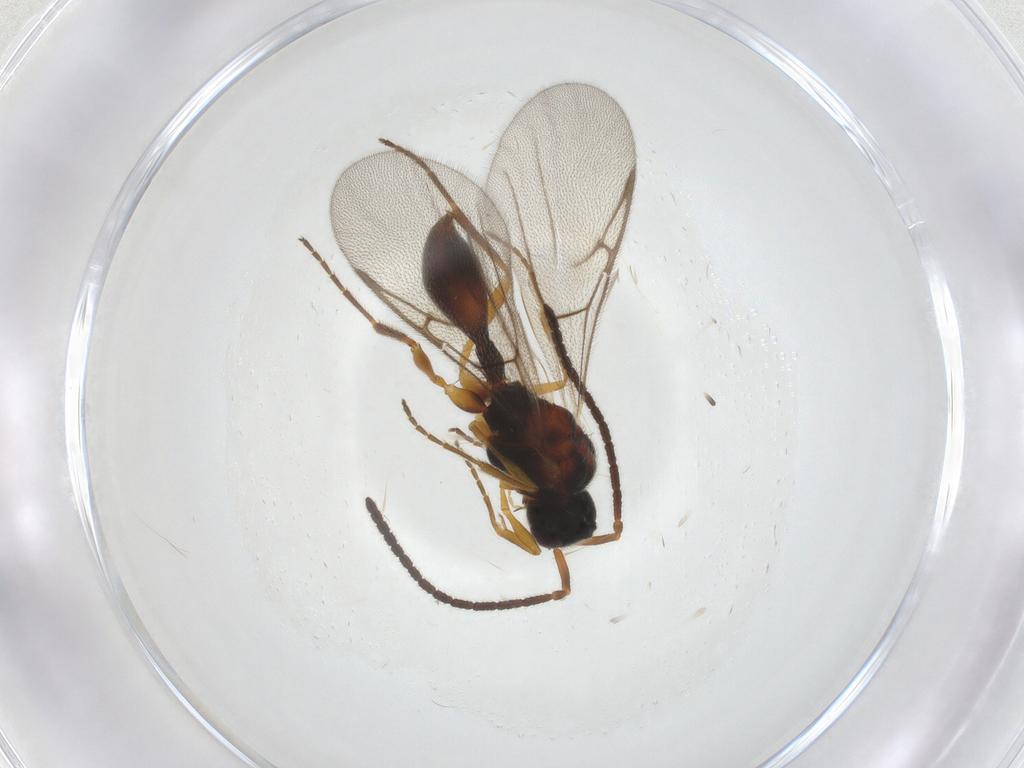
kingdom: Animalia
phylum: Arthropoda
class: Insecta
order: Hymenoptera
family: Diapriidae
